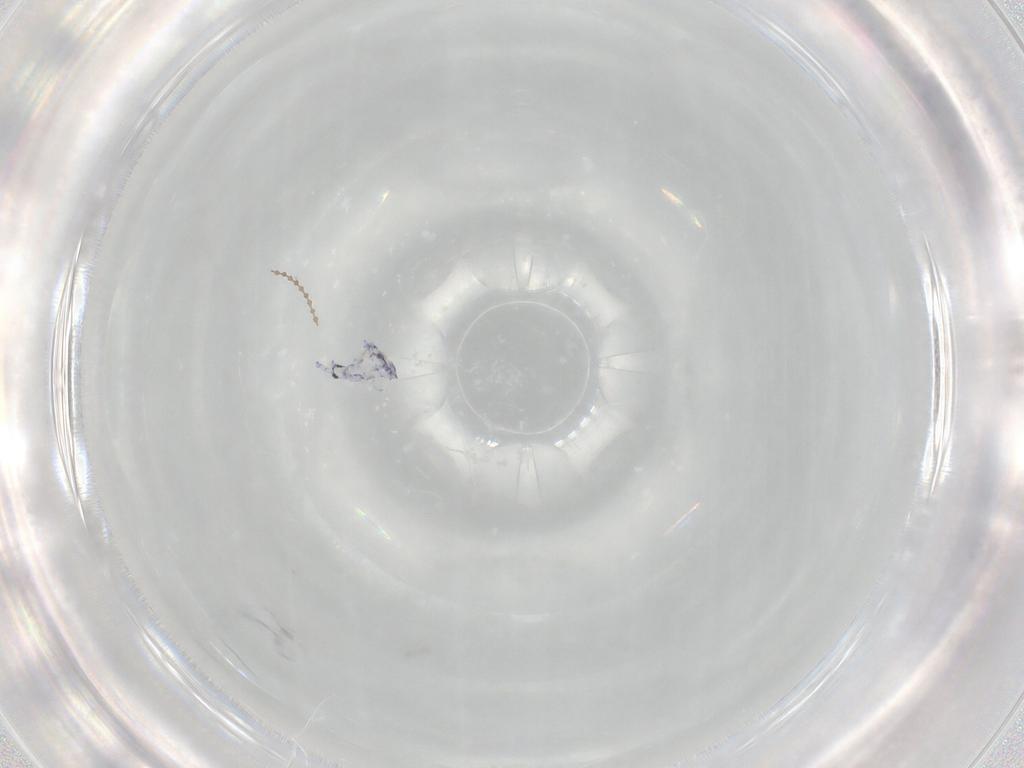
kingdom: Animalia
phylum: Arthropoda
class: Collembola
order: Entomobryomorpha
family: Entomobryidae
